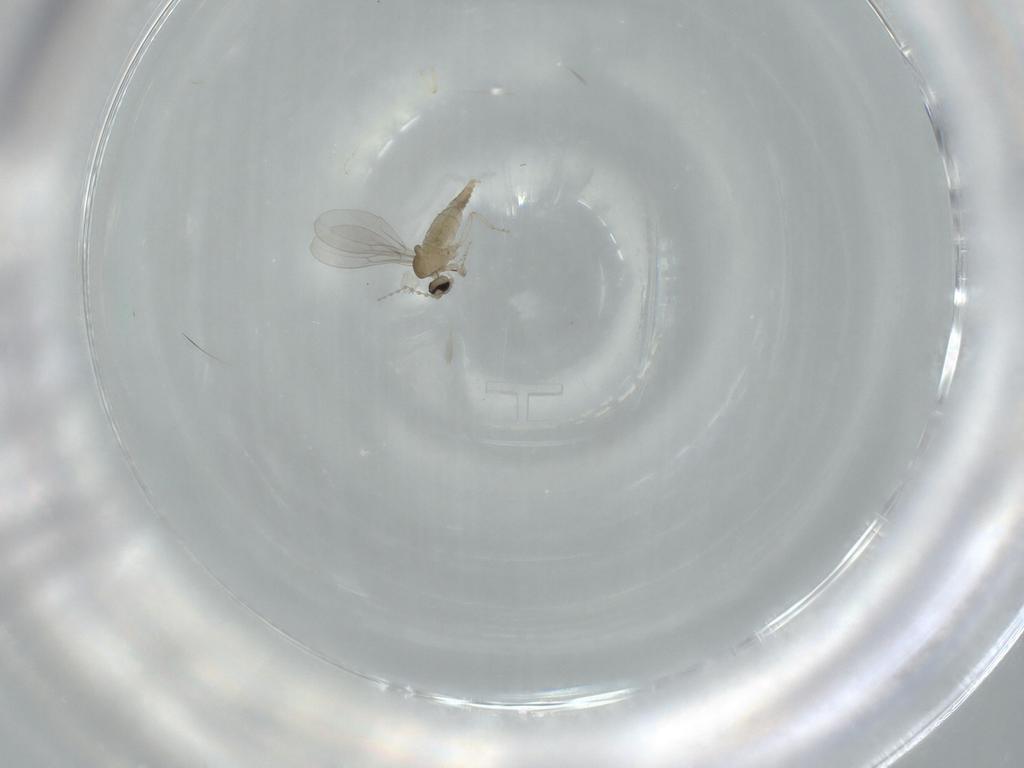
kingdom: Animalia
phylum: Arthropoda
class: Insecta
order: Diptera
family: Cecidomyiidae
